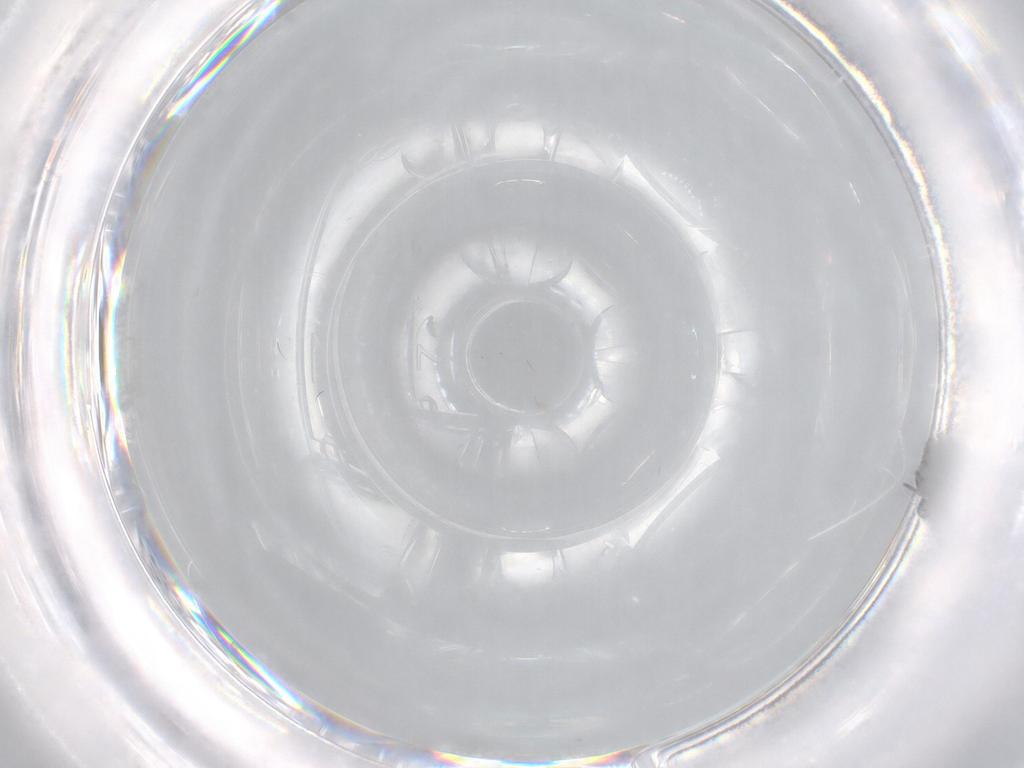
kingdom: Animalia
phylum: Arthropoda
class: Insecta
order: Diptera
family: Cecidomyiidae
